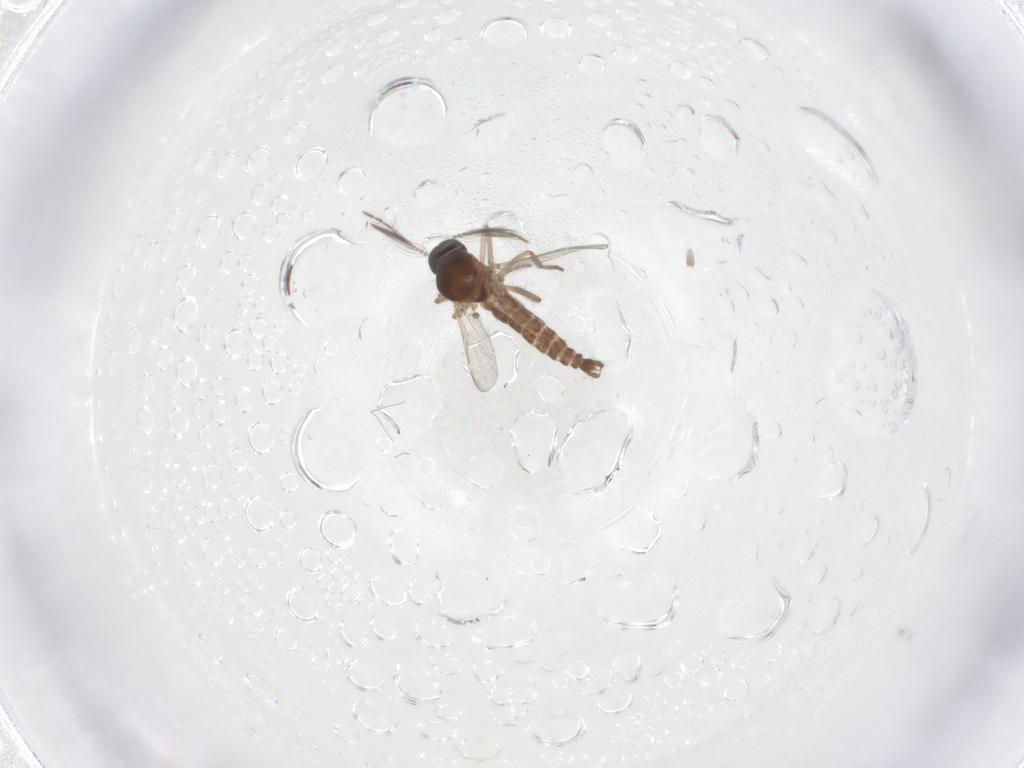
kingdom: Animalia
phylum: Arthropoda
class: Insecta
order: Diptera
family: Ceratopogonidae
